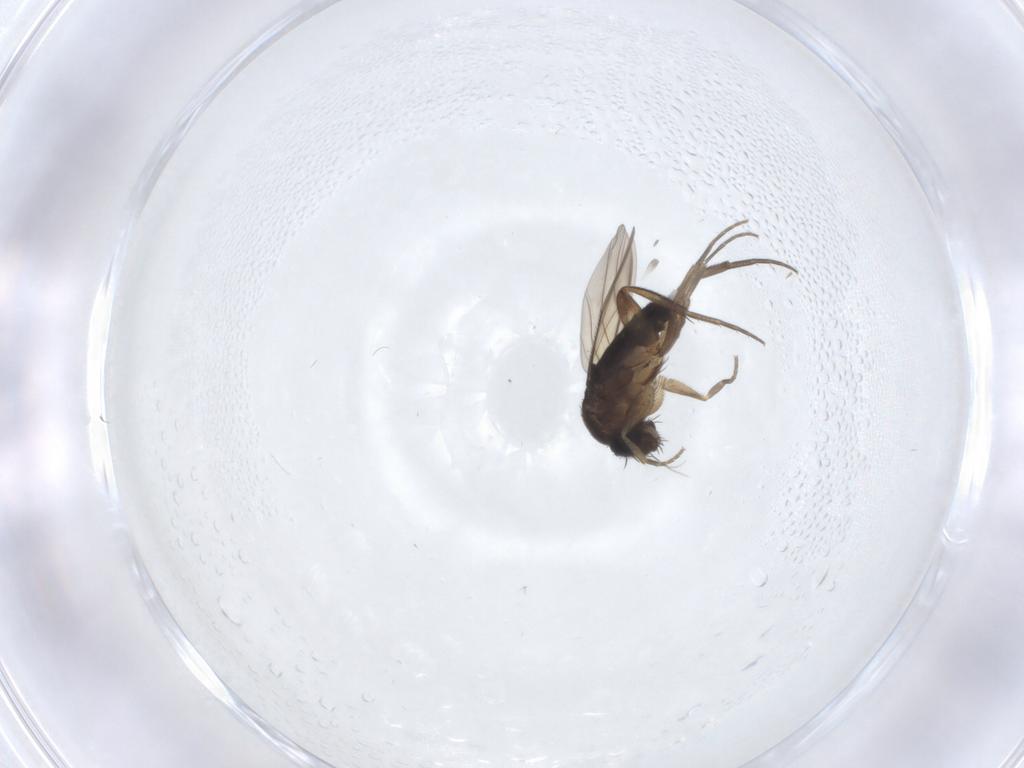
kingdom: Animalia
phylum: Arthropoda
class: Insecta
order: Diptera
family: Phoridae
